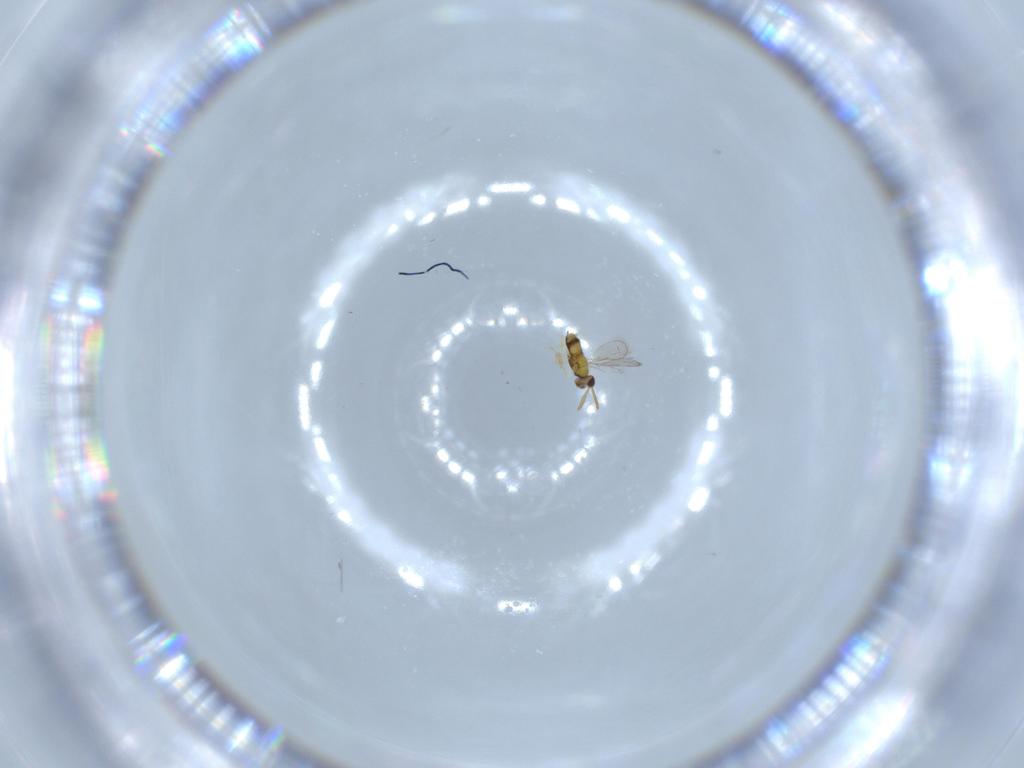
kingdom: Animalia
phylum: Arthropoda
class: Insecta
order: Hymenoptera
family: Aphelinidae
